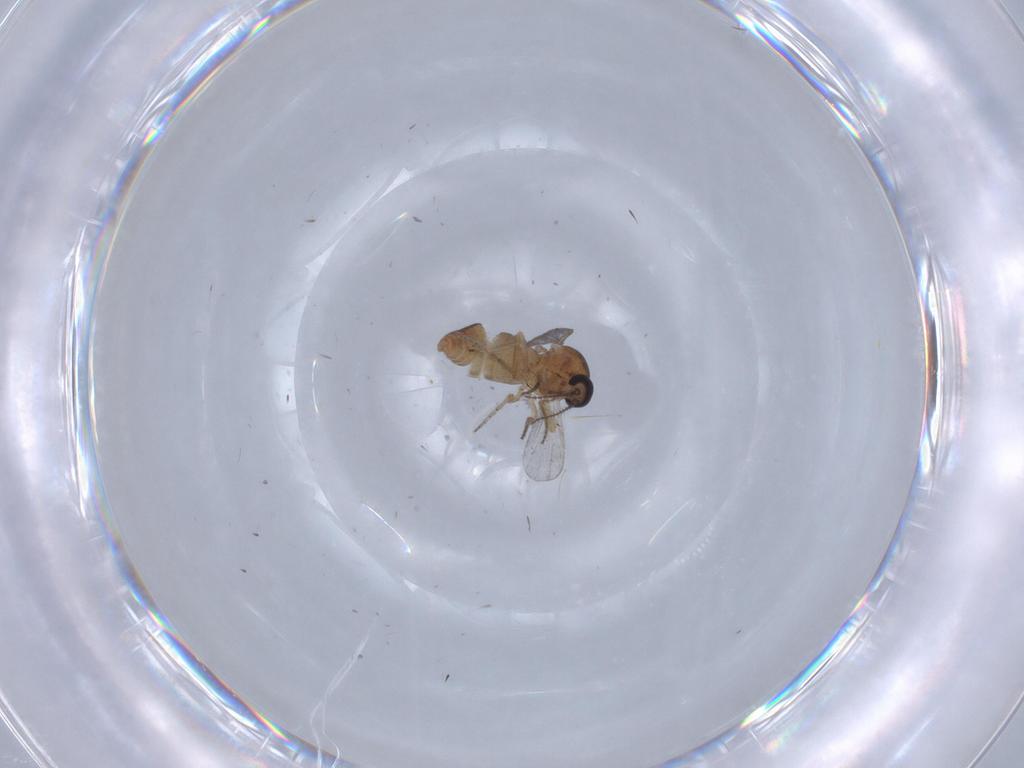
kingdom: Animalia
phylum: Arthropoda
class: Insecta
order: Diptera
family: Ceratopogonidae
